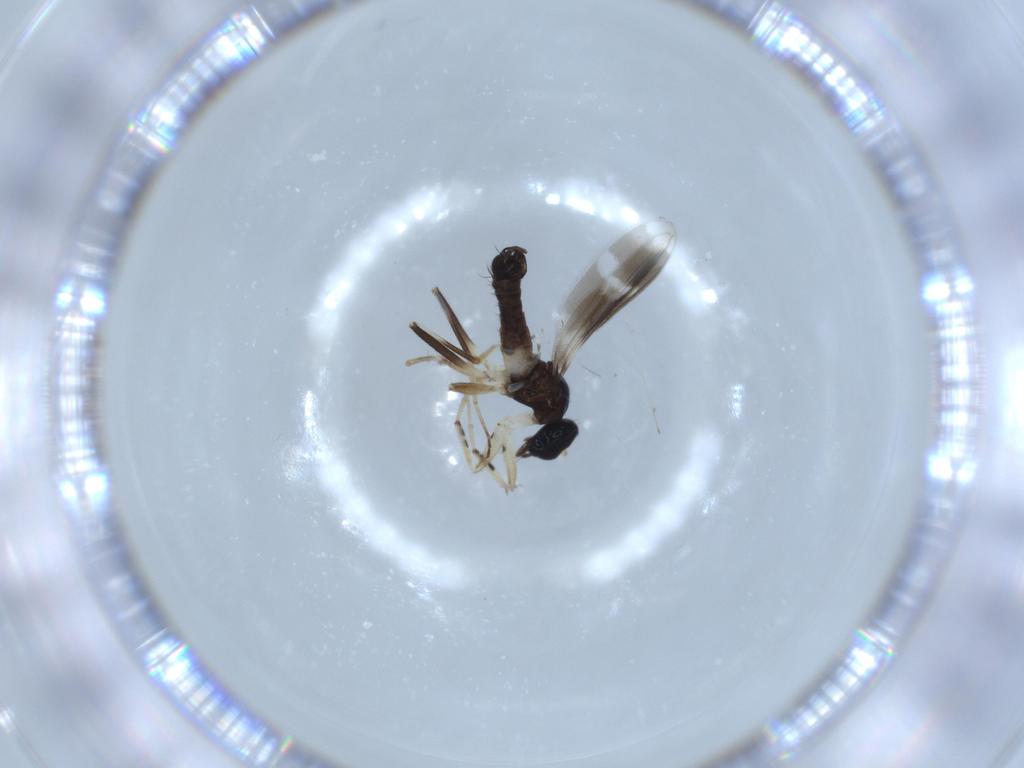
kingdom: Animalia
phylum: Arthropoda
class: Insecta
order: Diptera
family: Hybotidae
